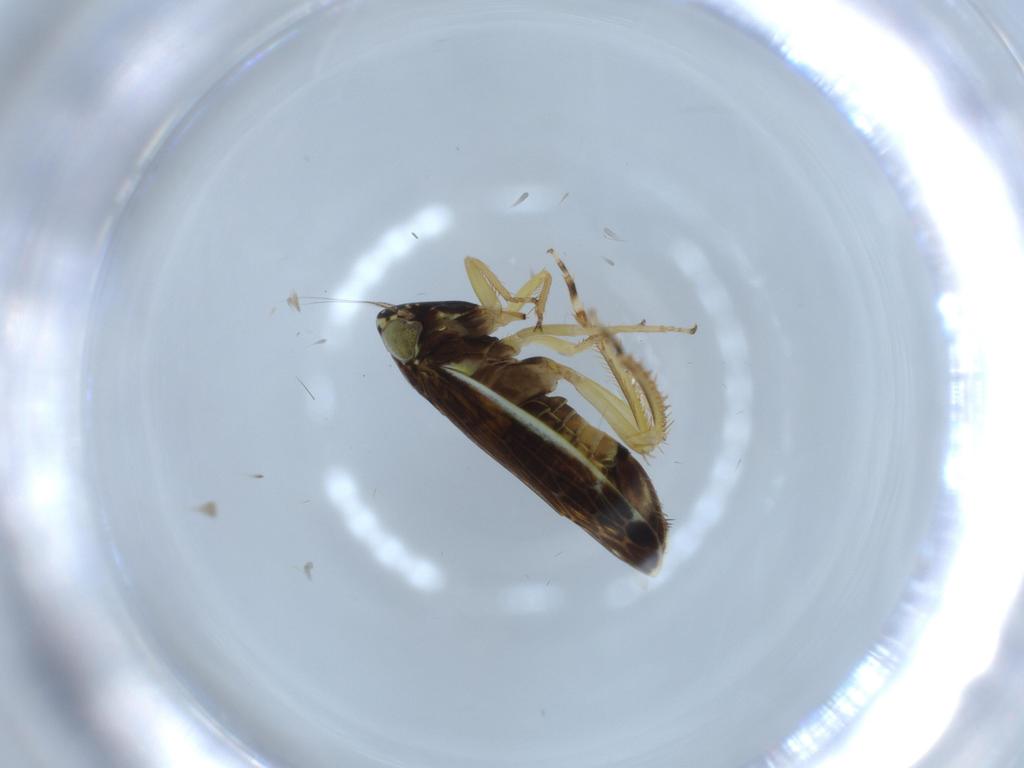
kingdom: Animalia
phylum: Arthropoda
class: Insecta
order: Hemiptera
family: Cicadellidae
